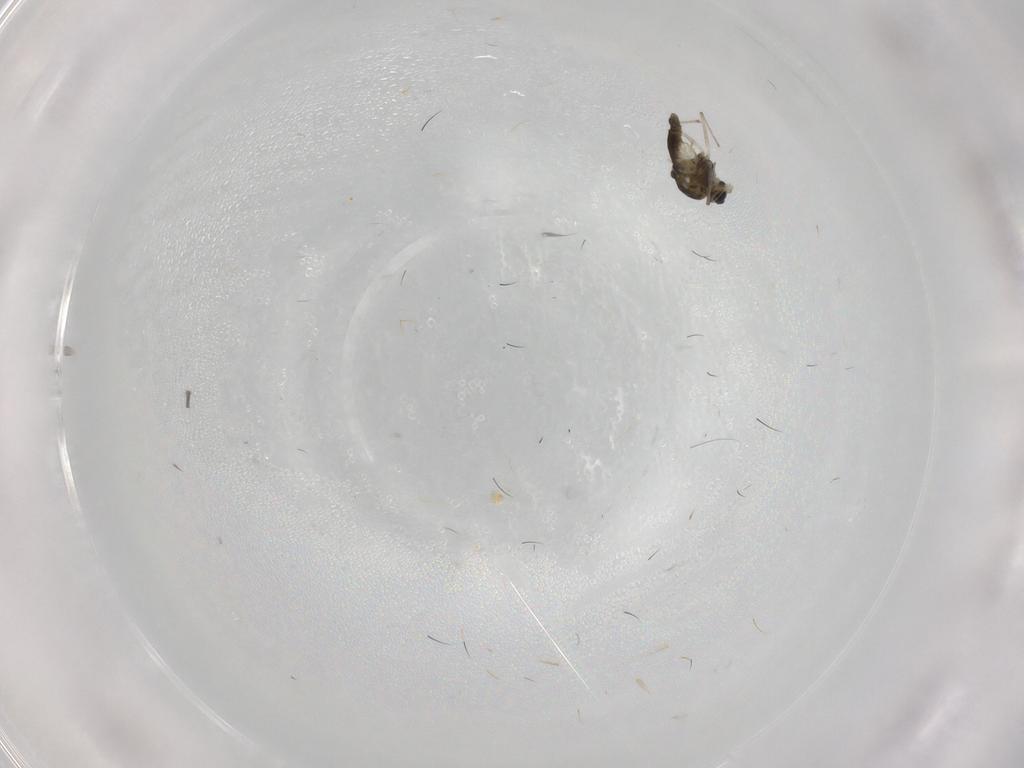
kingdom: Animalia
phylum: Arthropoda
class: Insecta
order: Diptera
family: Chironomidae
